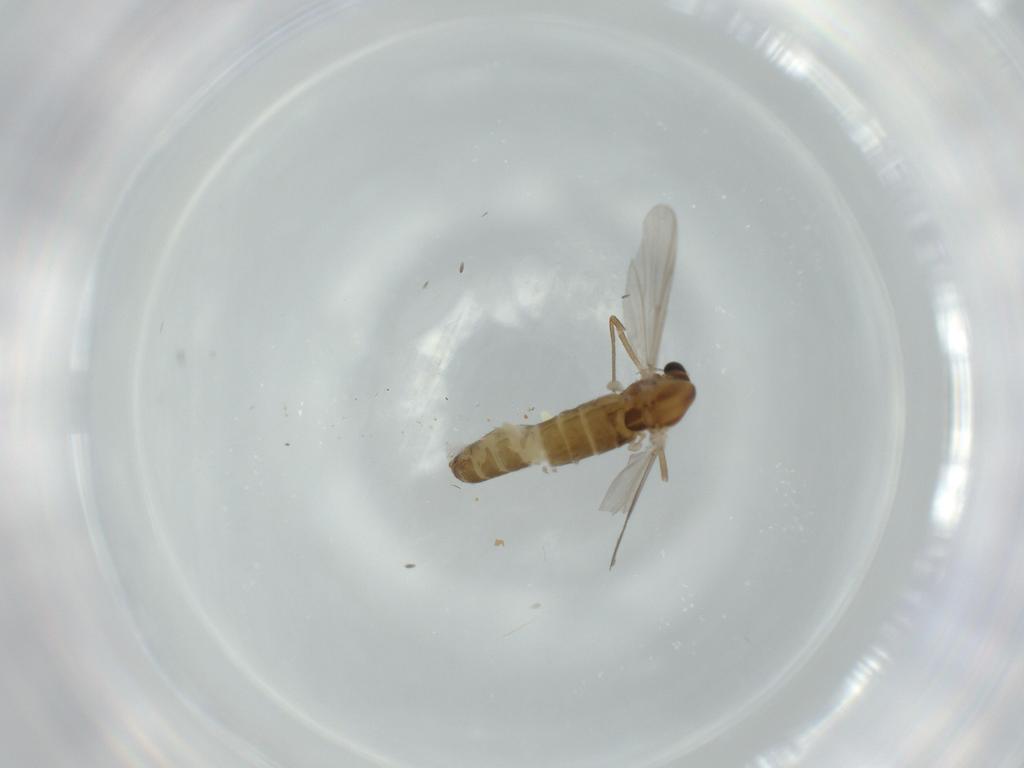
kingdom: Animalia
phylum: Arthropoda
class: Insecta
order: Diptera
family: Chironomidae
